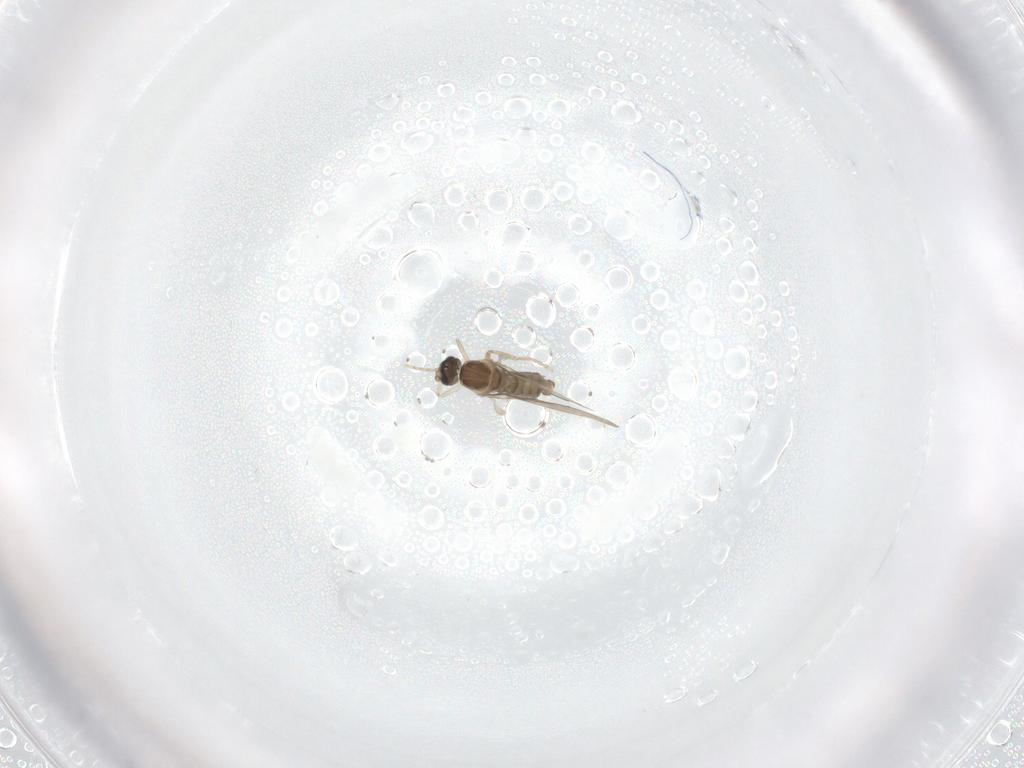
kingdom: Animalia
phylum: Arthropoda
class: Insecta
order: Diptera
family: Cecidomyiidae
